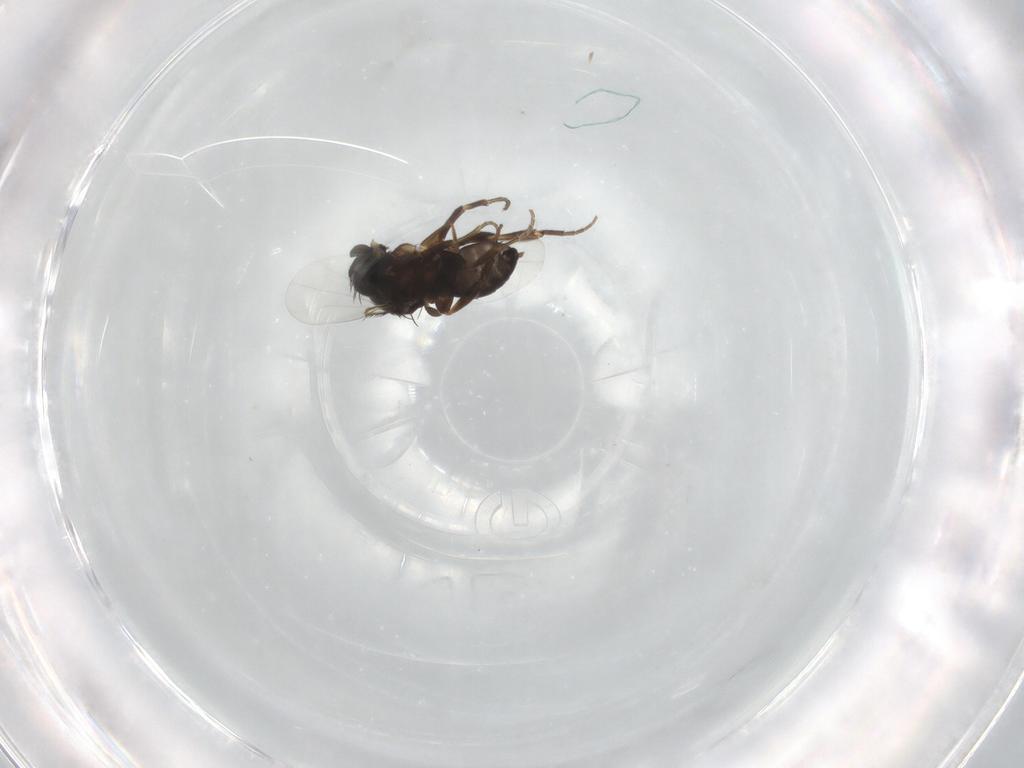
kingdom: Animalia
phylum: Arthropoda
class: Insecta
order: Diptera
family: Phoridae
